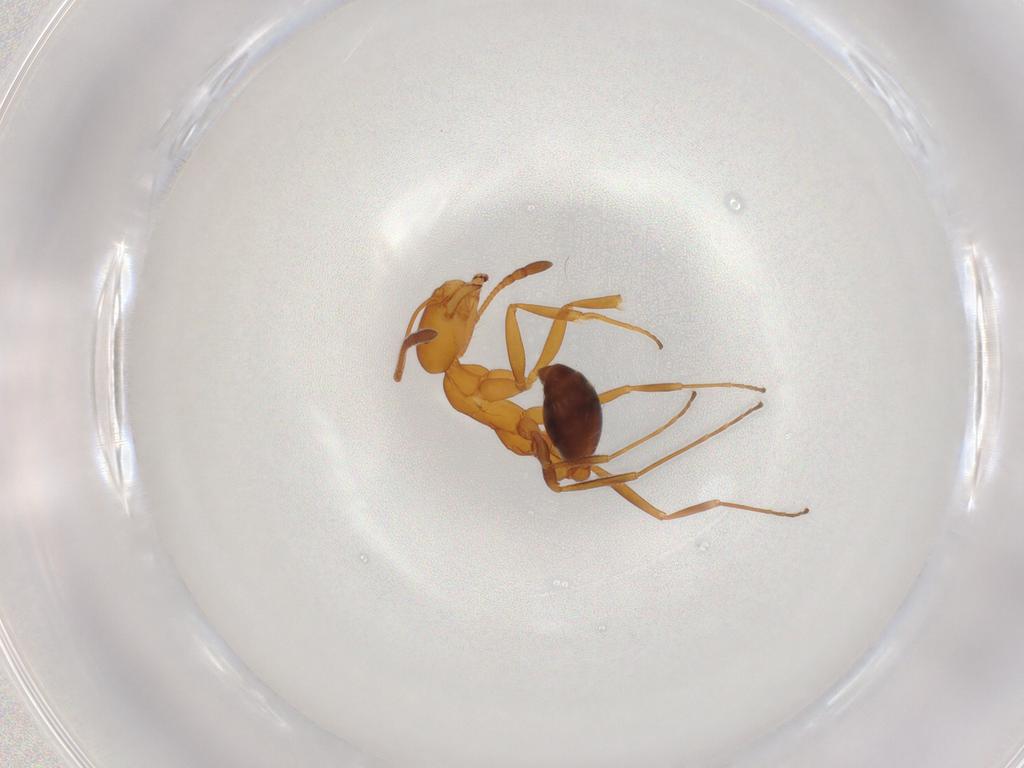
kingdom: Animalia
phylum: Arthropoda
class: Insecta
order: Hymenoptera
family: Formicidae
